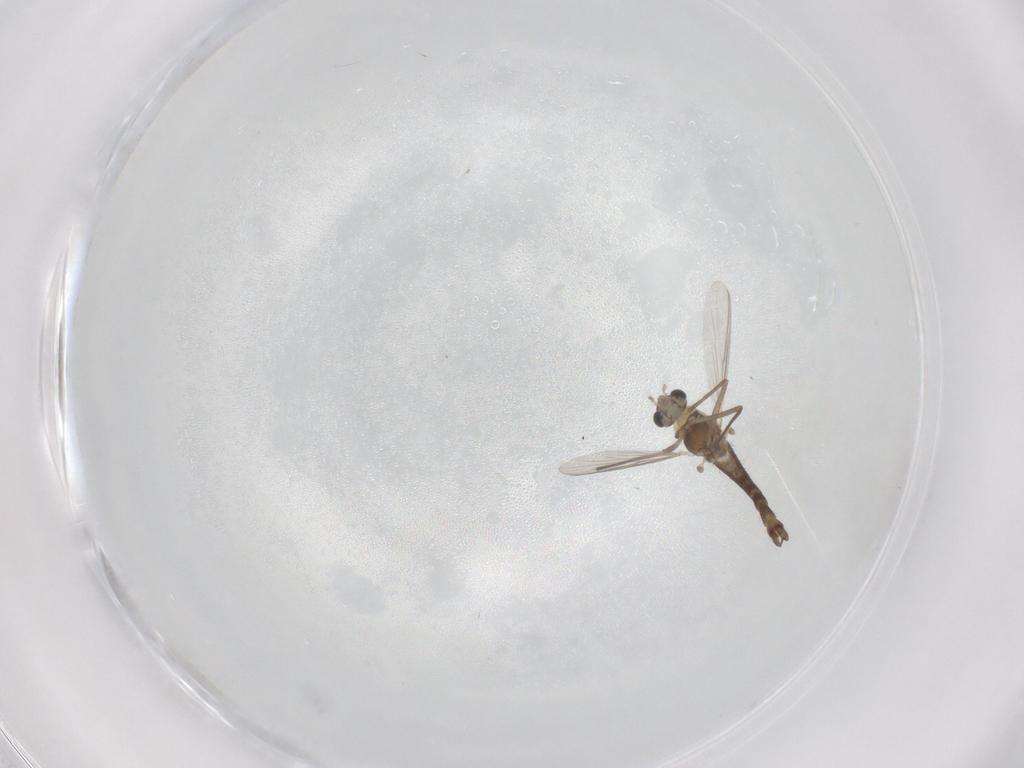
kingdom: Animalia
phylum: Arthropoda
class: Insecta
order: Diptera
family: Chironomidae
